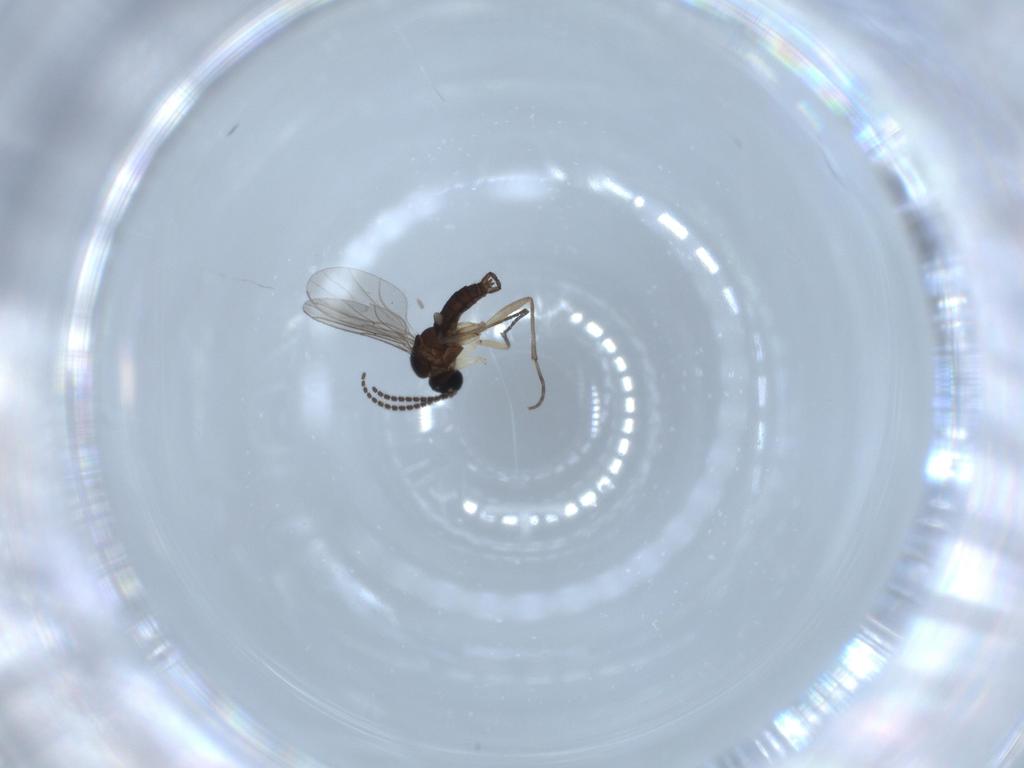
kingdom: Animalia
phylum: Arthropoda
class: Insecta
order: Diptera
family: Sciaridae
